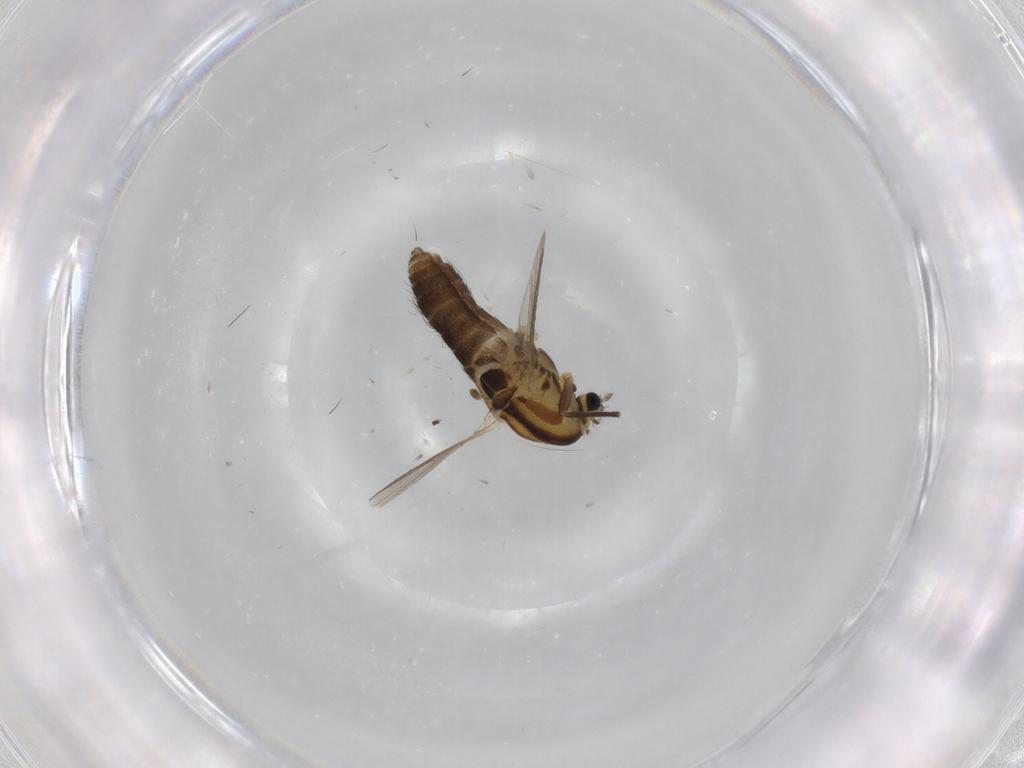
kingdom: Animalia
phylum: Arthropoda
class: Insecta
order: Diptera
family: Chironomidae
